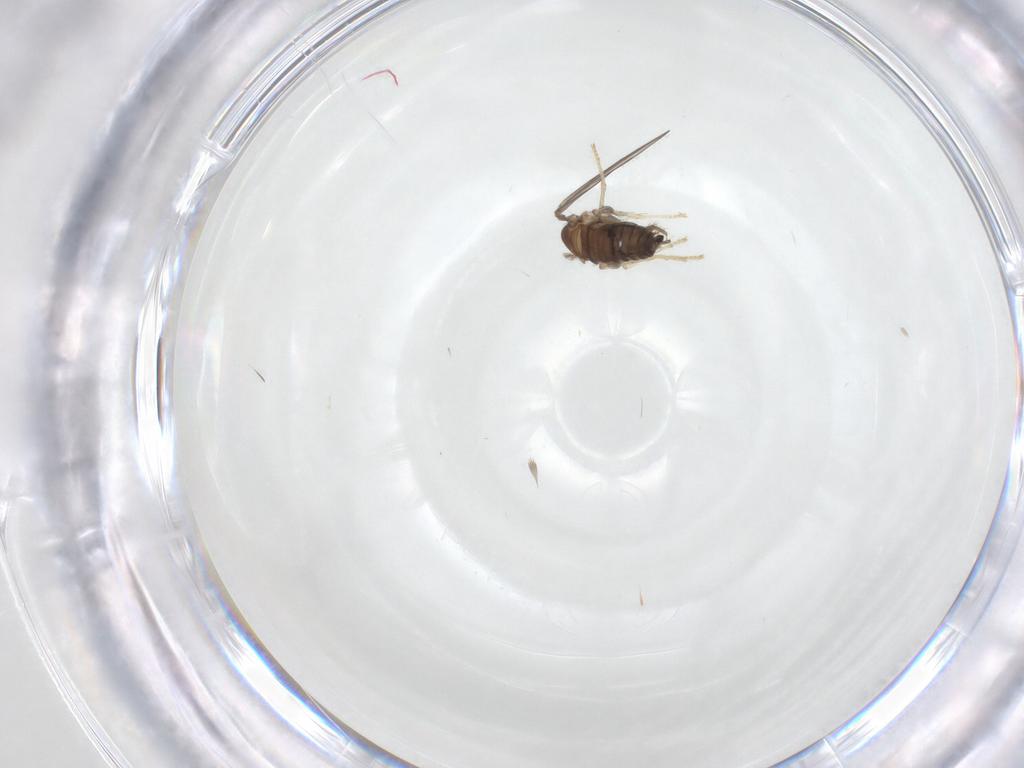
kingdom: Animalia
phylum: Arthropoda
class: Insecta
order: Diptera
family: Psychodidae
